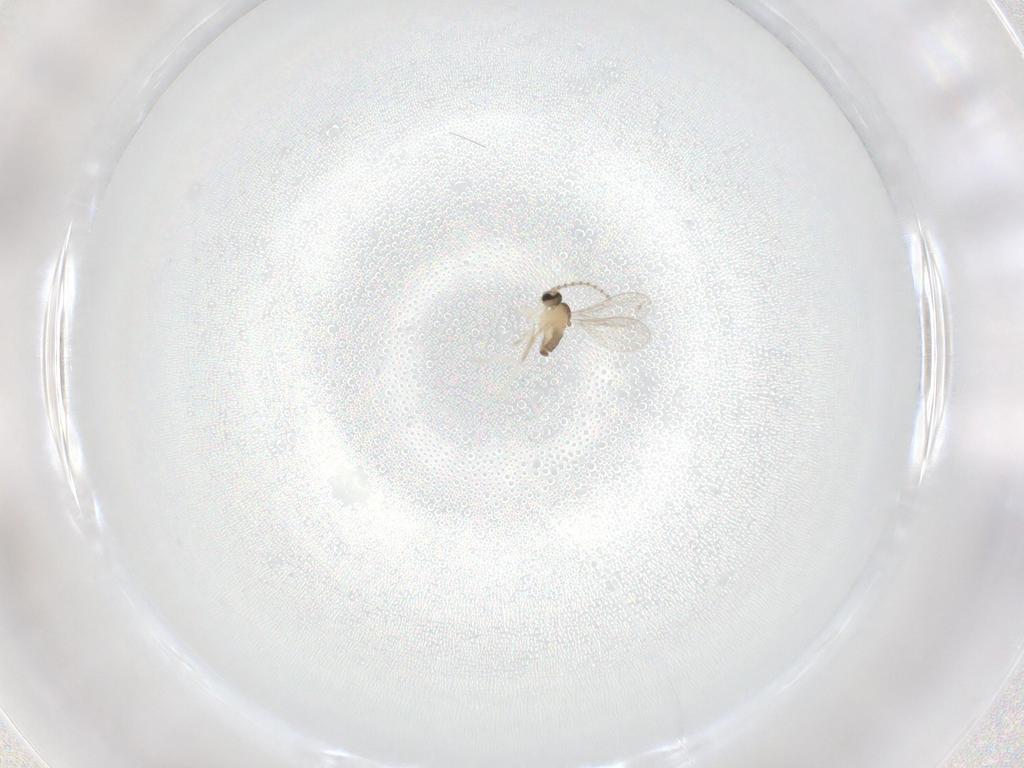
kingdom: Animalia
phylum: Arthropoda
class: Insecta
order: Diptera
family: Cecidomyiidae
